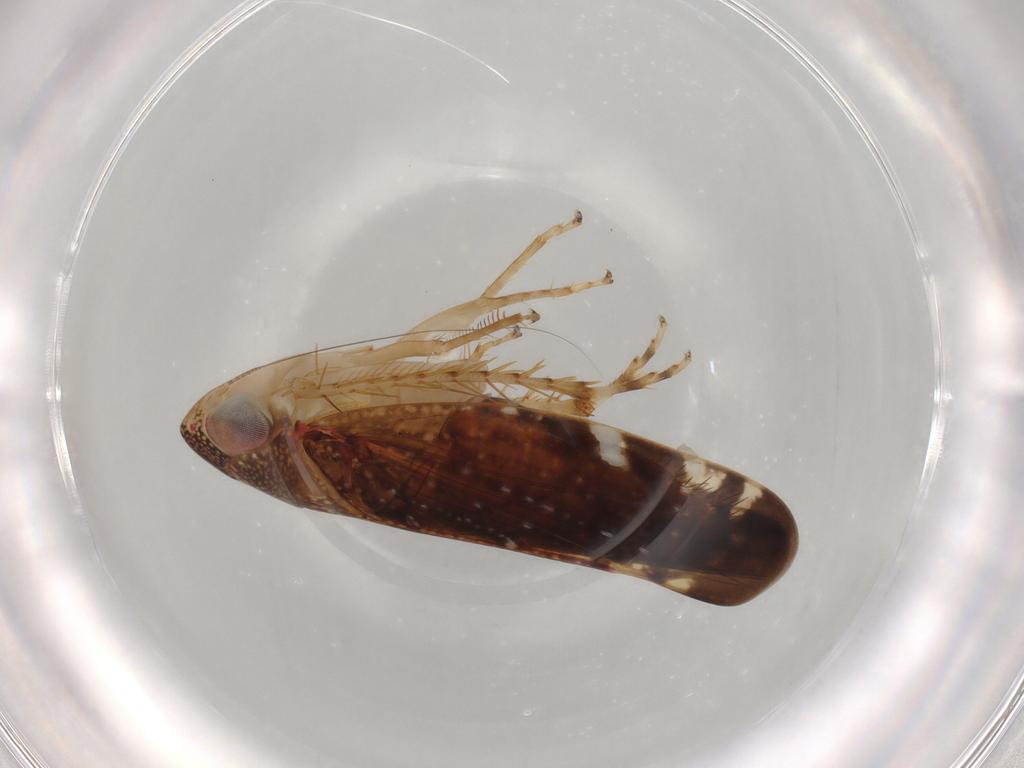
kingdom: Animalia
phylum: Arthropoda
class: Insecta
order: Hemiptera
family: Cicadellidae
